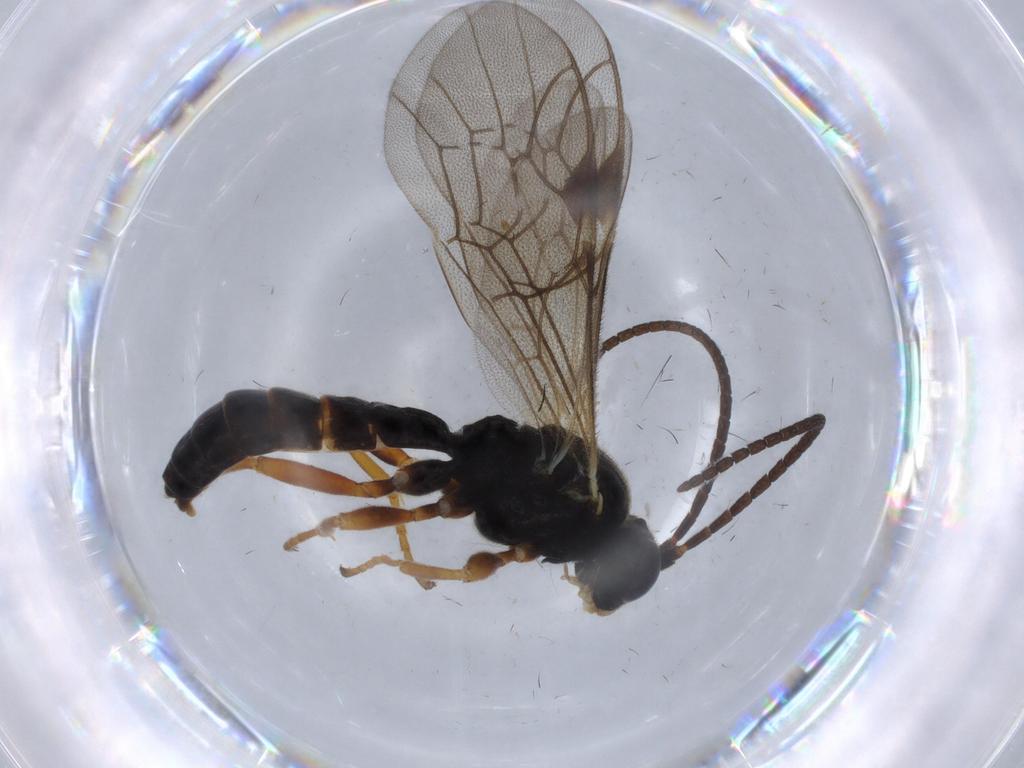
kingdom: Animalia
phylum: Arthropoda
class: Insecta
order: Hymenoptera
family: Ichneumonidae
